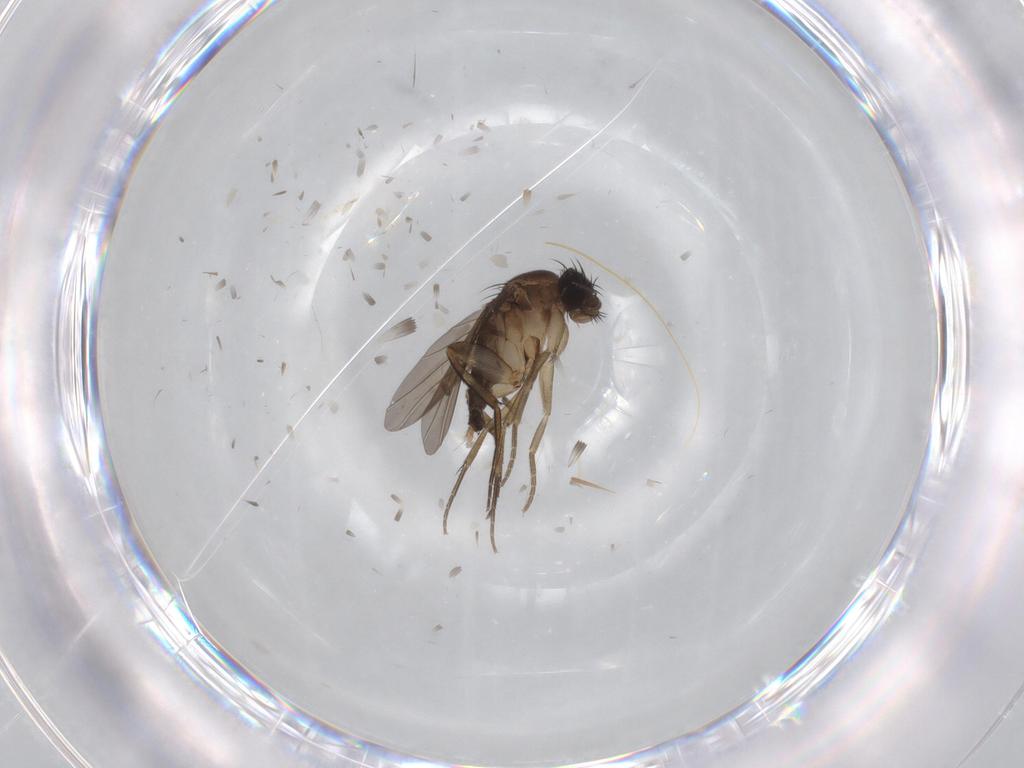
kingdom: Animalia
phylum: Arthropoda
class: Insecta
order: Diptera
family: Phoridae
